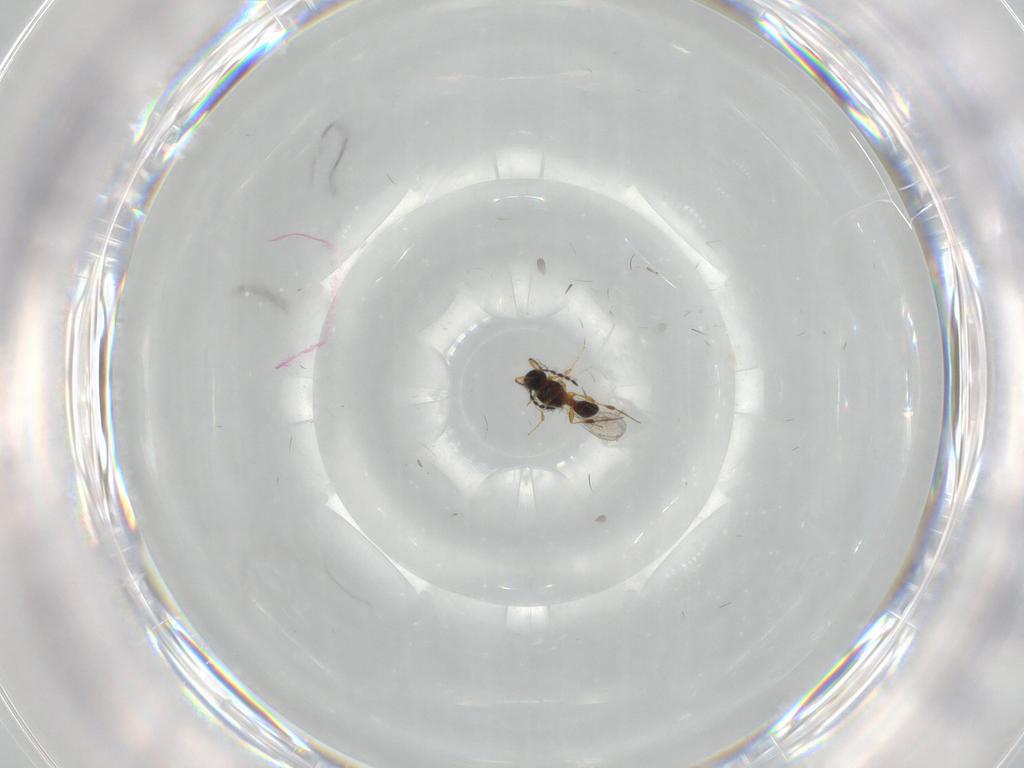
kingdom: Animalia
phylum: Arthropoda
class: Insecta
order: Hymenoptera
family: Platygastridae
